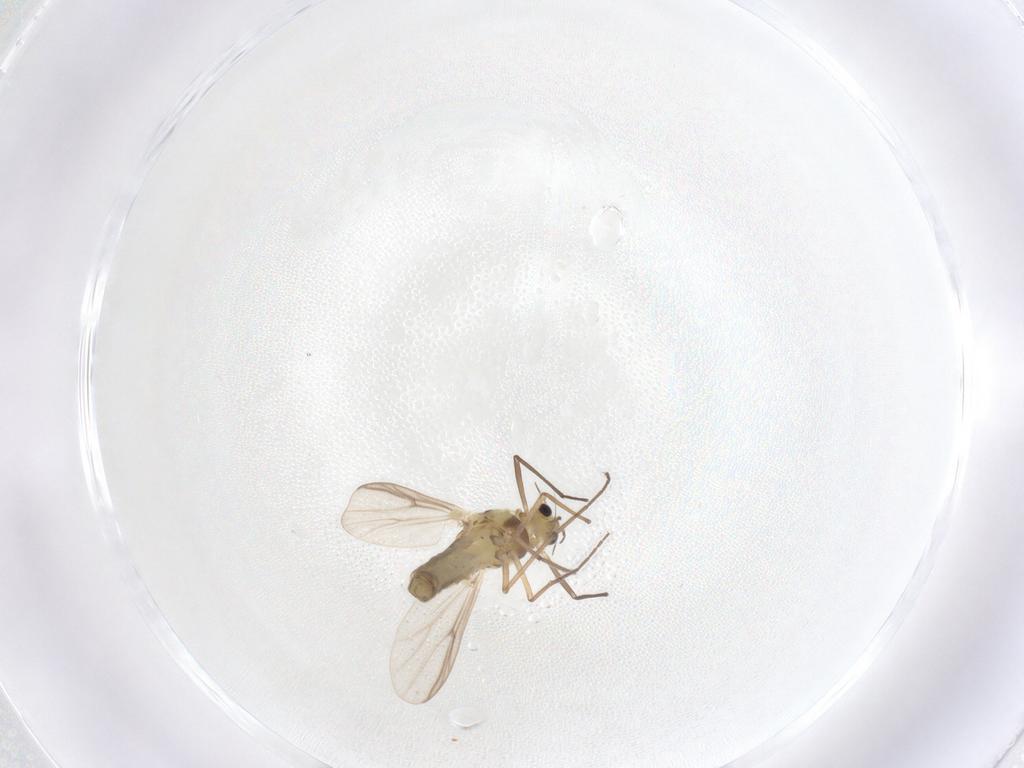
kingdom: Animalia
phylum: Arthropoda
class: Insecta
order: Diptera
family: Chironomidae
